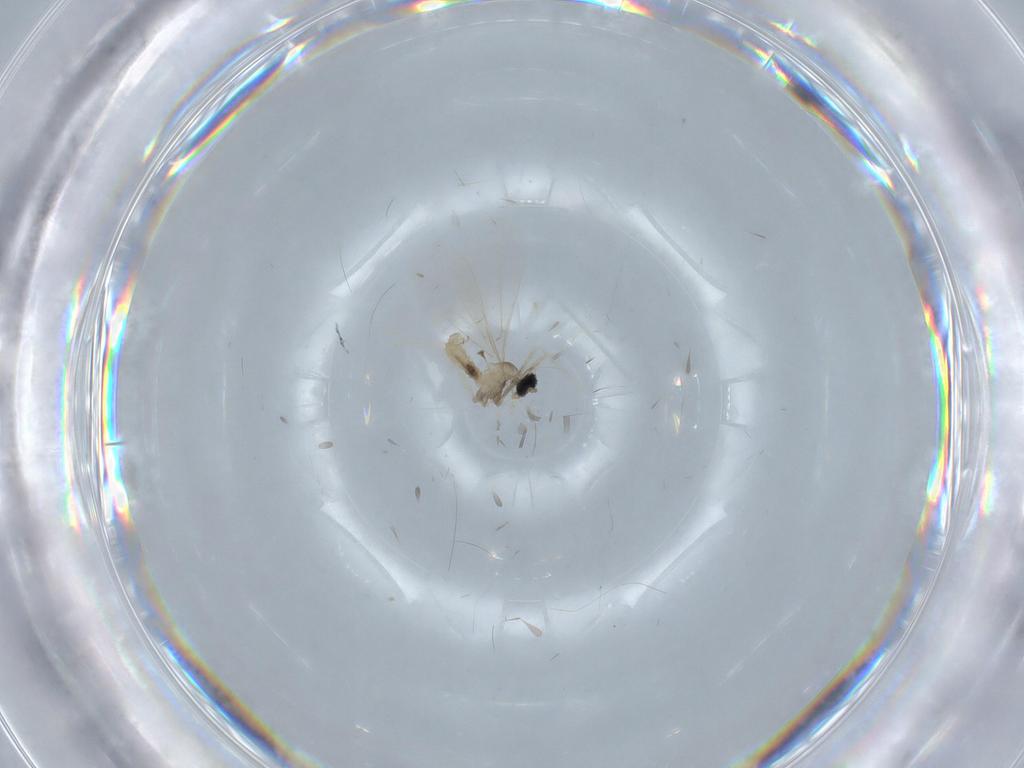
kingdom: Animalia
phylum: Arthropoda
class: Insecta
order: Diptera
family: Cecidomyiidae
